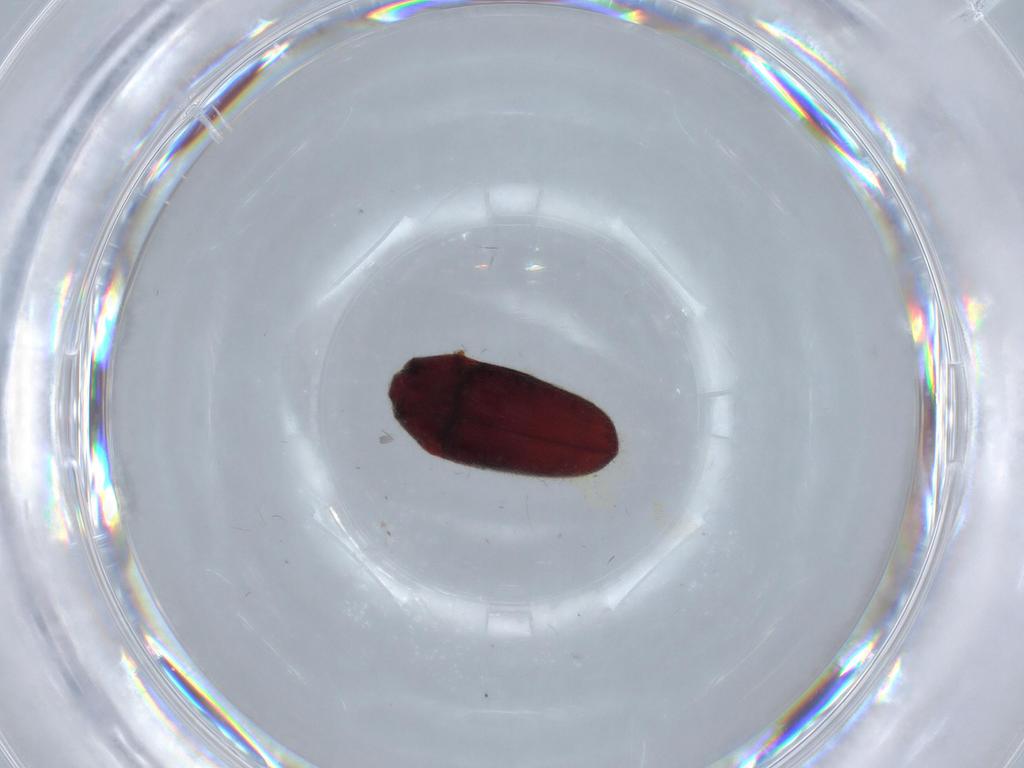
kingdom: Animalia
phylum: Arthropoda
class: Insecta
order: Coleoptera
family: Throscidae
